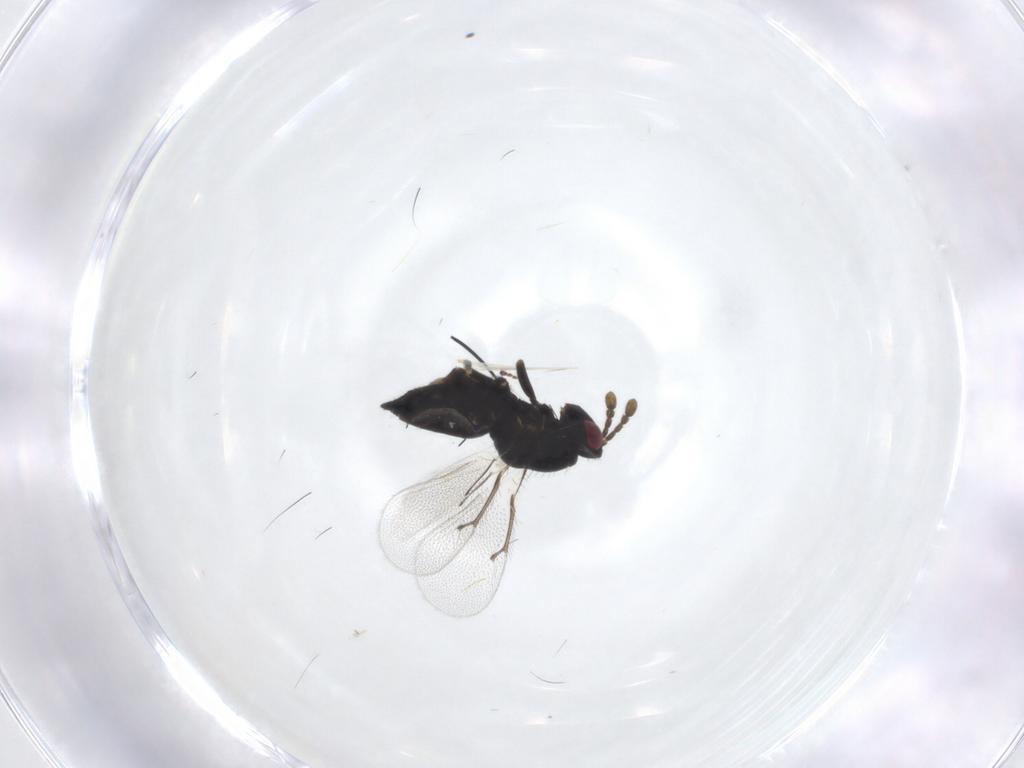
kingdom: Animalia
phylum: Arthropoda
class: Insecta
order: Hymenoptera
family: Eulophidae
